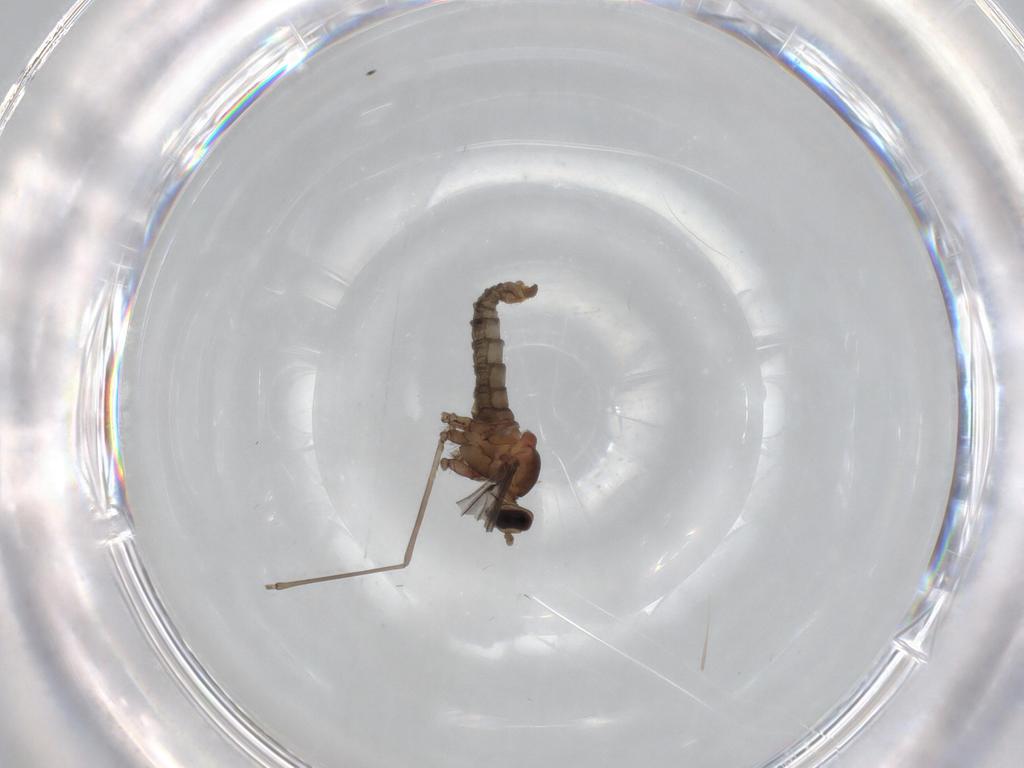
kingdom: Animalia
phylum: Arthropoda
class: Insecta
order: Diptera
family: Cecidomyiidae
